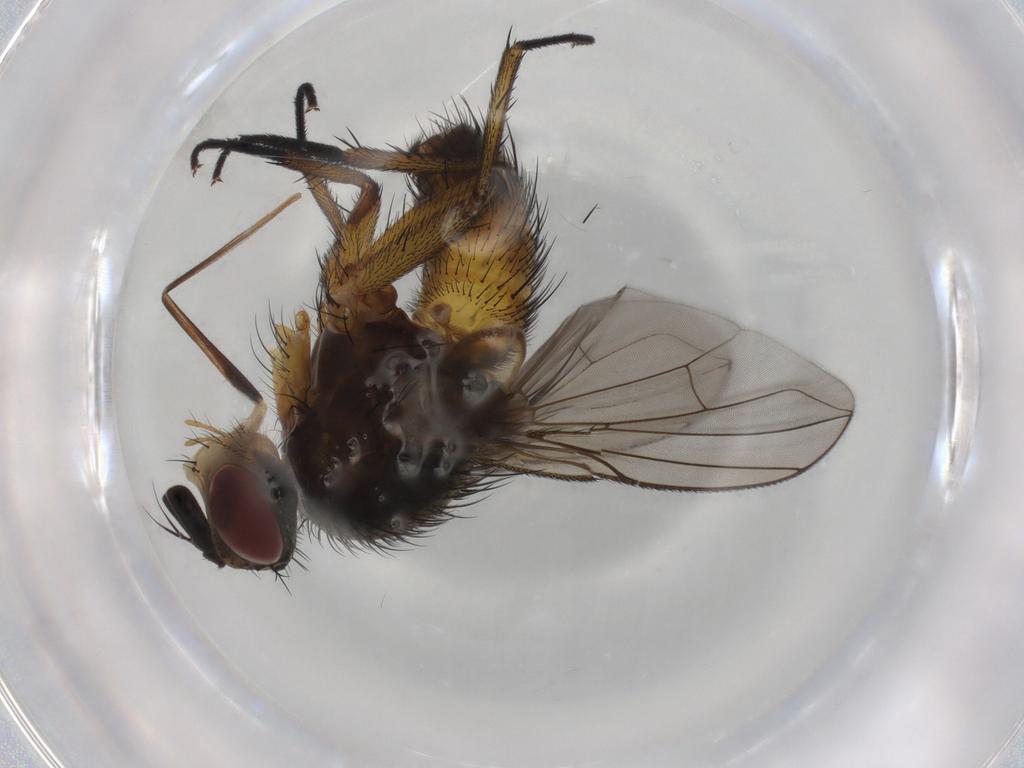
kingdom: Animalia
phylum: Arthropoda
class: Insecta
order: Diptera
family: Tachinidae
